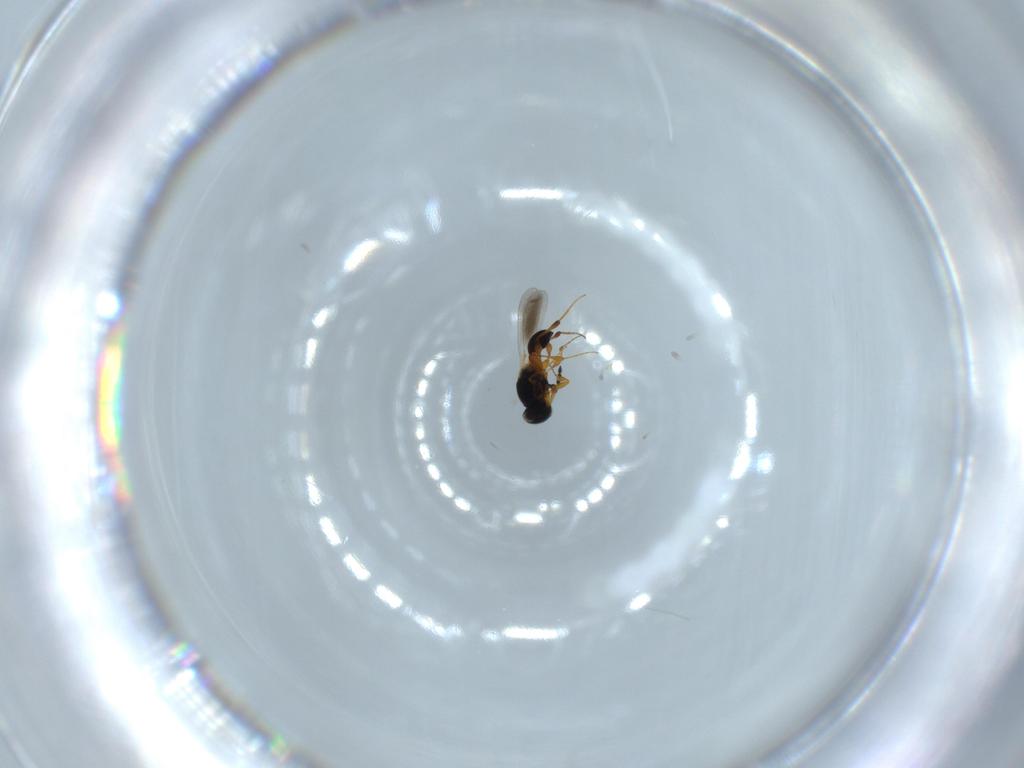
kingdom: Animalia
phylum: Arthropoda
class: Insecta
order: Hymenoptera
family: Platygastridae
